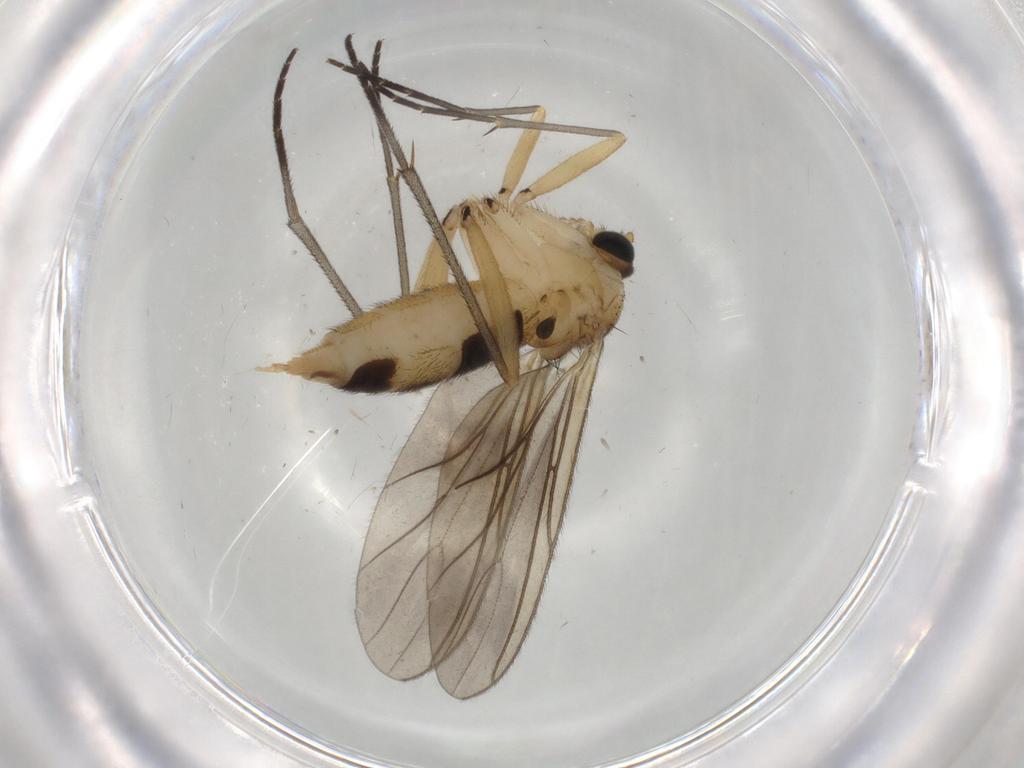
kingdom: Animalia
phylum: Arthropoda
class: Insecta
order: Diptera
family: Sciaridae
